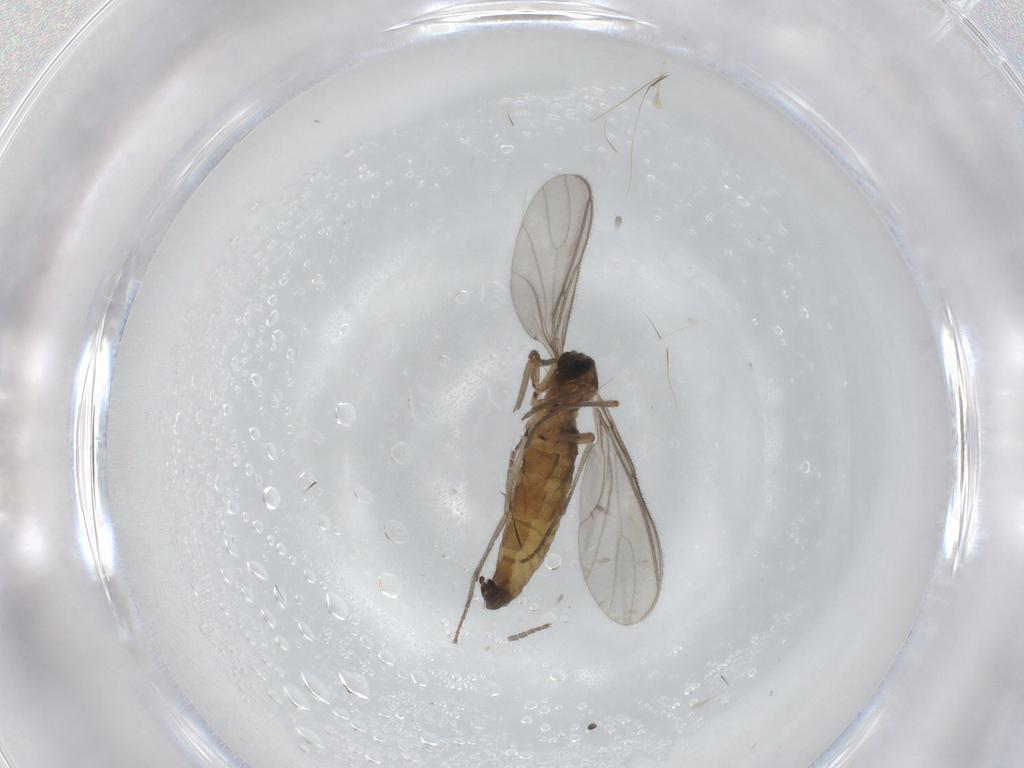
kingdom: Animalia
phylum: Arthropoda
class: Insecta
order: Diptera
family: Sciaridae
